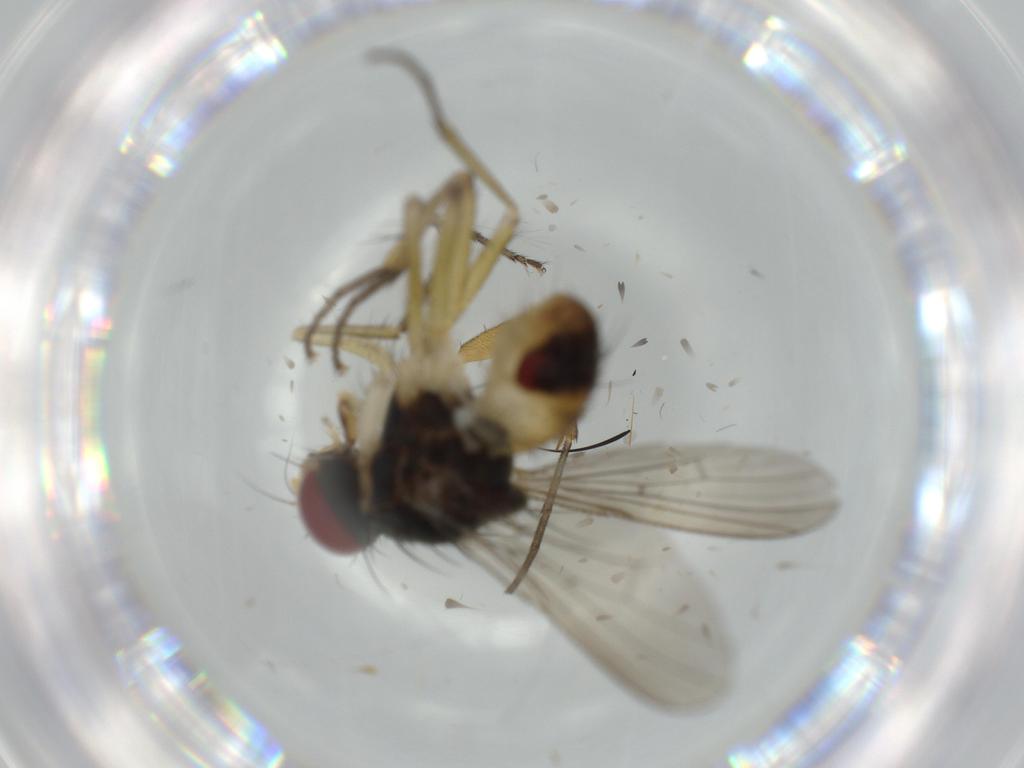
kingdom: Animalia
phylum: Arthropoda
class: Insecta
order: Diptera
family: Muscidae
